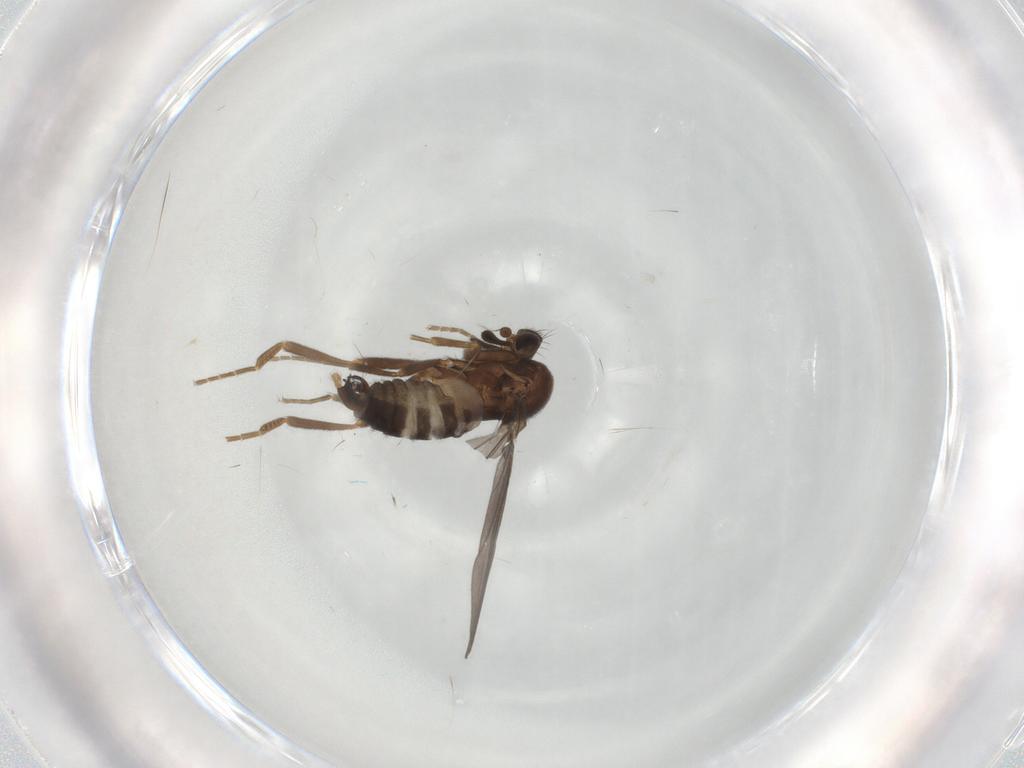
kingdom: Animalia
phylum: Arthropoda
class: Insecta
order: Diptera
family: Phoridae
